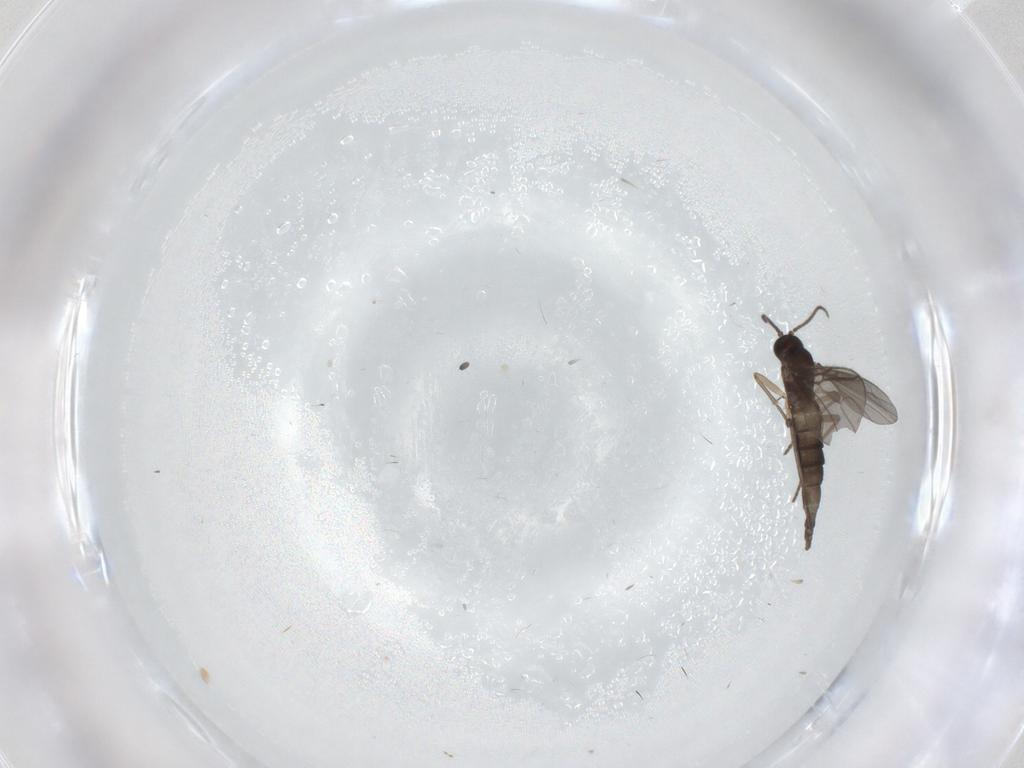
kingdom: Animalia
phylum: Arthropoda
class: Insecta
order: Diptera
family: Sciaridae
